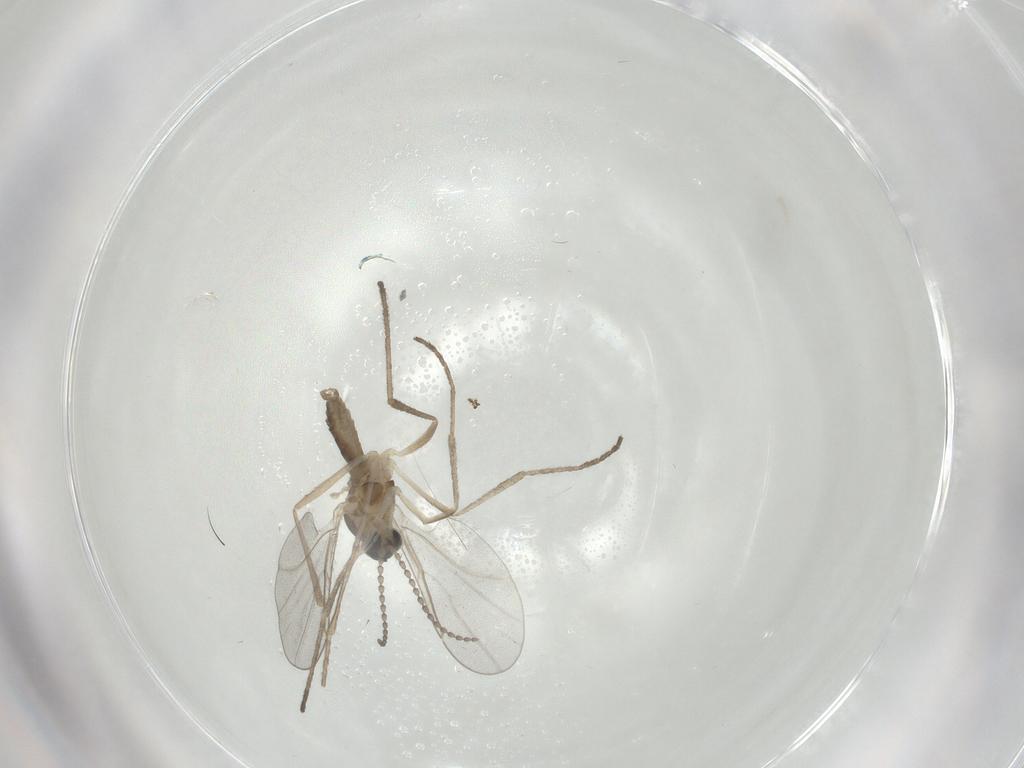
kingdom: Animalia
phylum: Arthropoda
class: Insecta
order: Diptera
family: Cecidomyiidae
